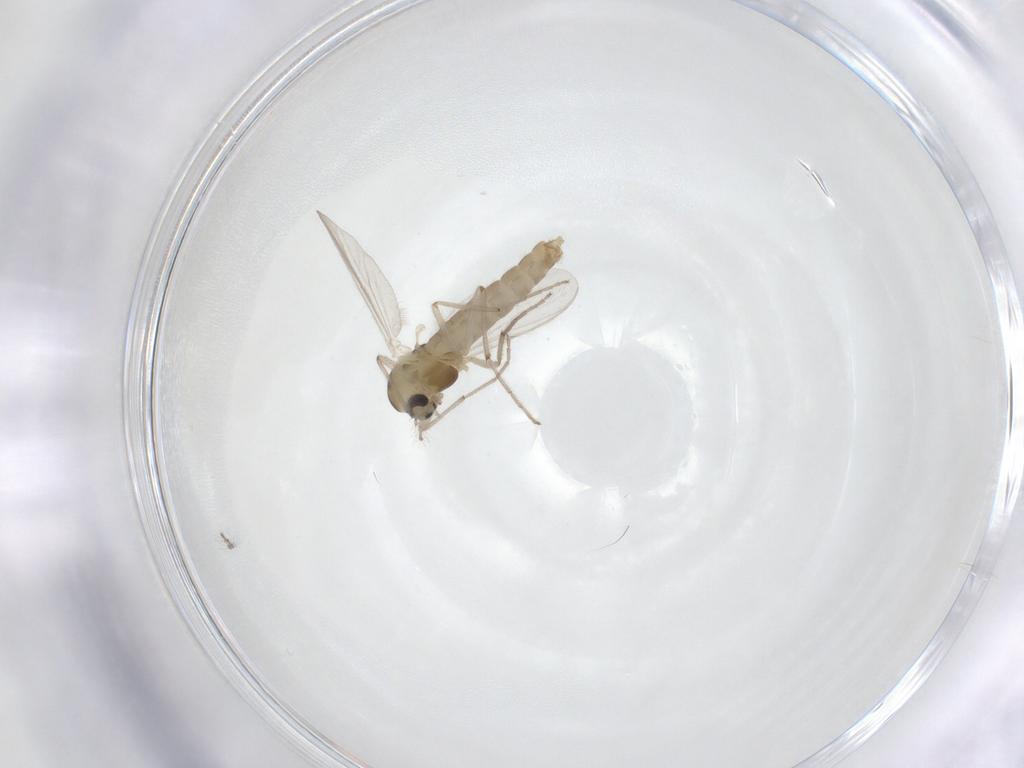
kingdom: Animalia
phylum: Arthropoda
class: Insecta
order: Diptera
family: Chironomidae
